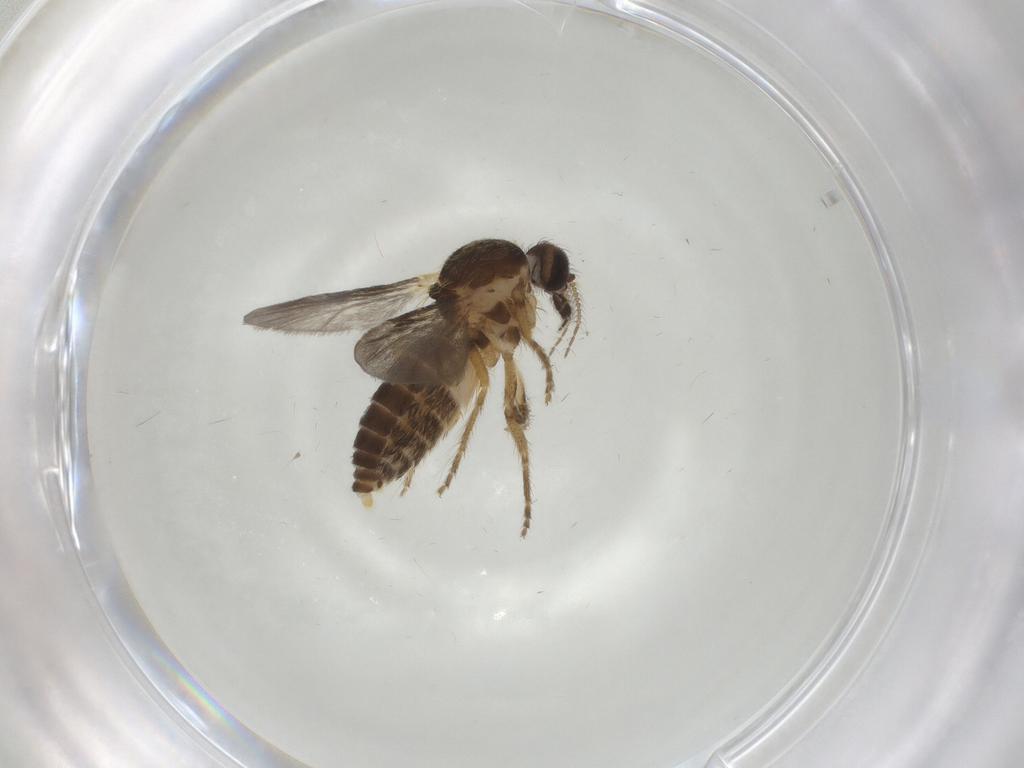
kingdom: Animalia
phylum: Arthropoda
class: Insecta
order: Diptera
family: Ceratopogonidae
